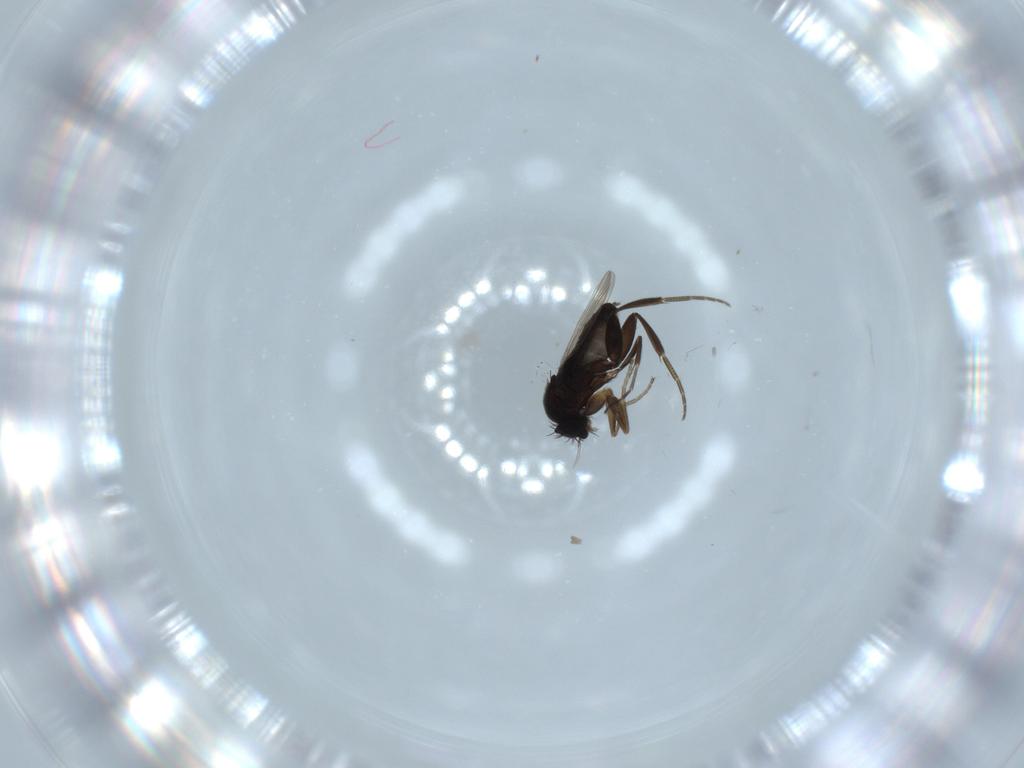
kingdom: Animalia
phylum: Arthropoda
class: Insecta
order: Diptera
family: Phoridae
